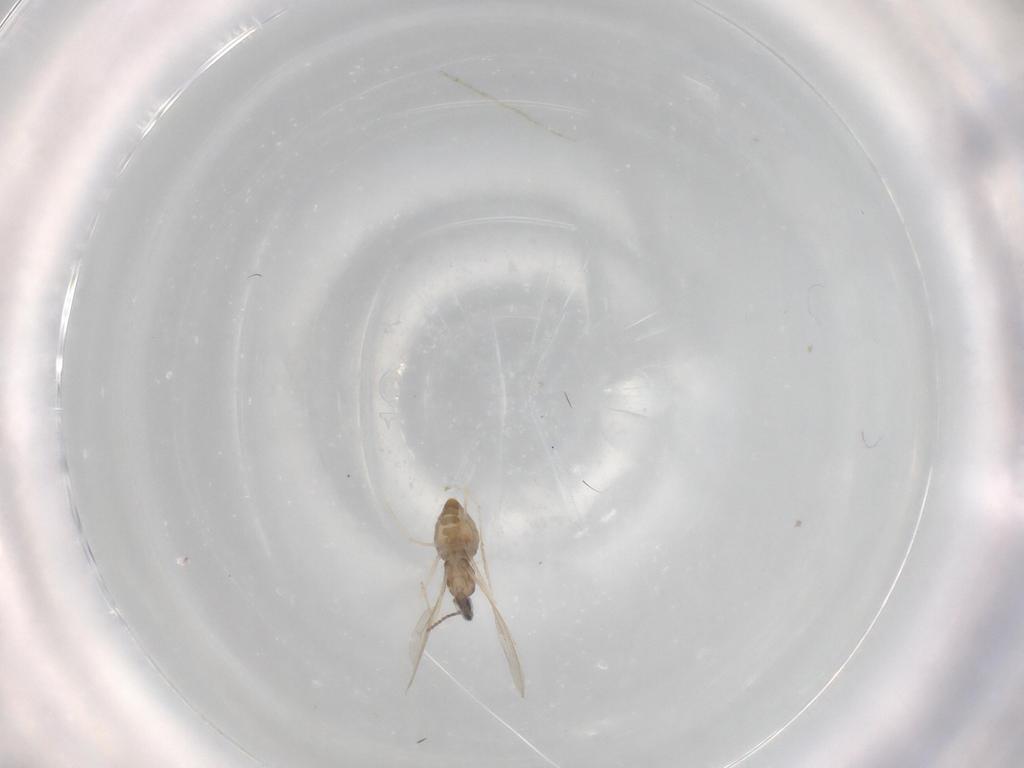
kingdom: Animalia
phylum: Arthropoda
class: Insecta
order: Diptera
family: Cecidomyiidae
